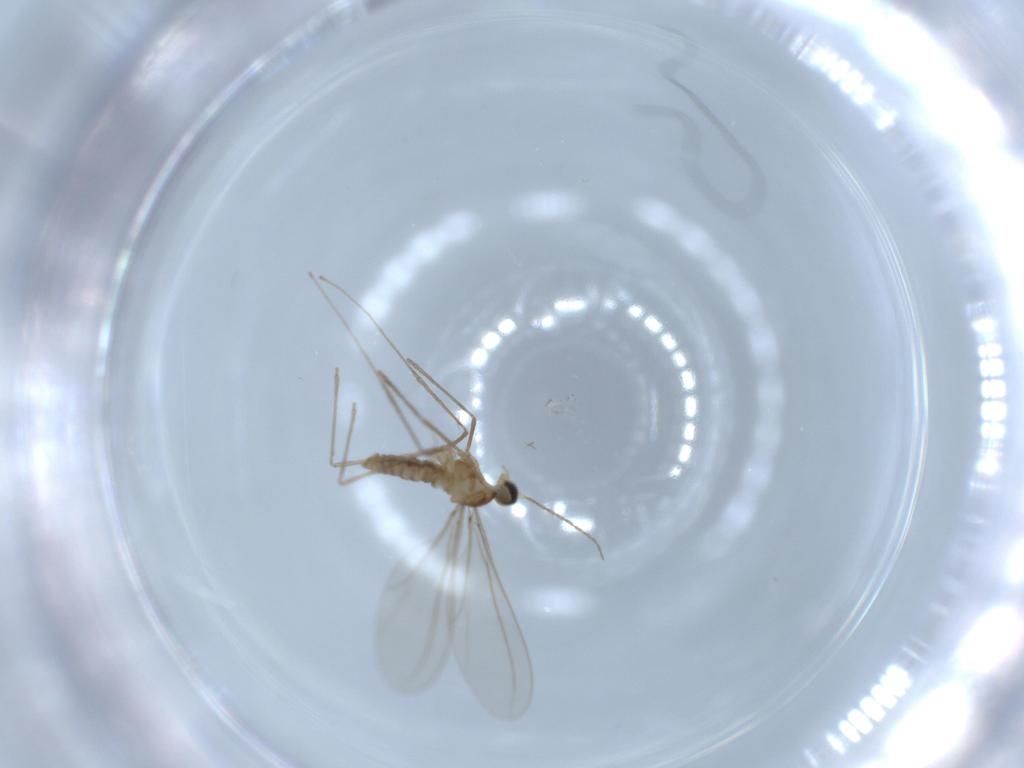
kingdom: Animalia
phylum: Arthropoda
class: Insecta
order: Diptera
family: Cecidomyiidae
